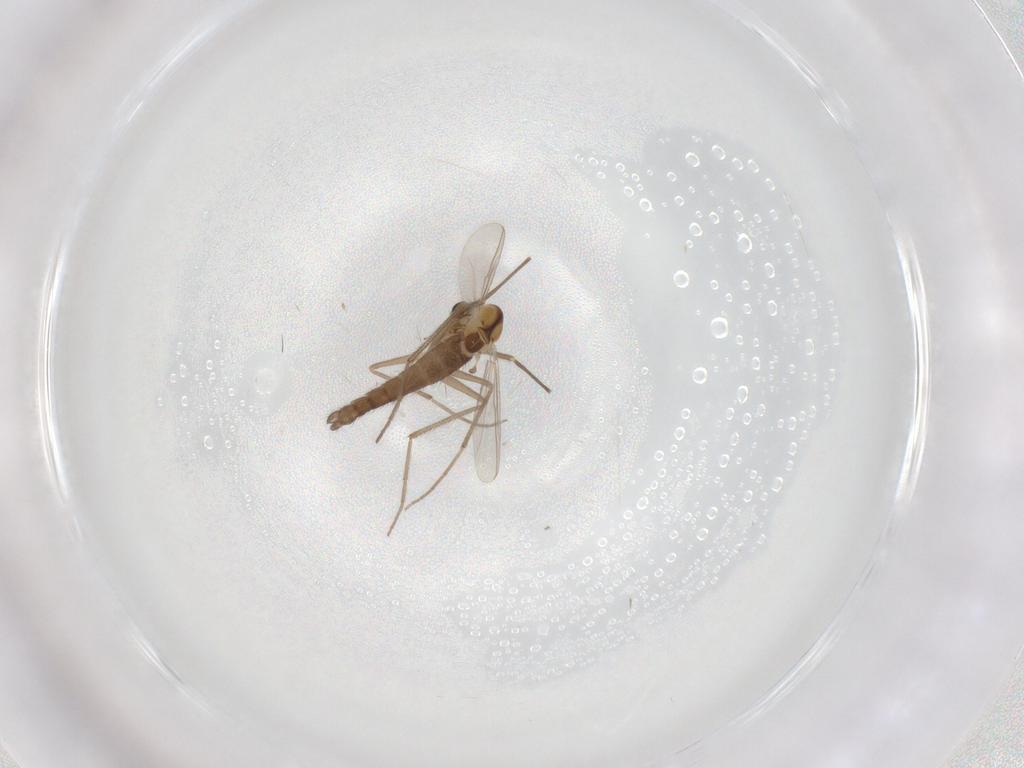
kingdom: Animalia
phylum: Arthropoda
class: Insecta
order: Diptera
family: Chironomidae
